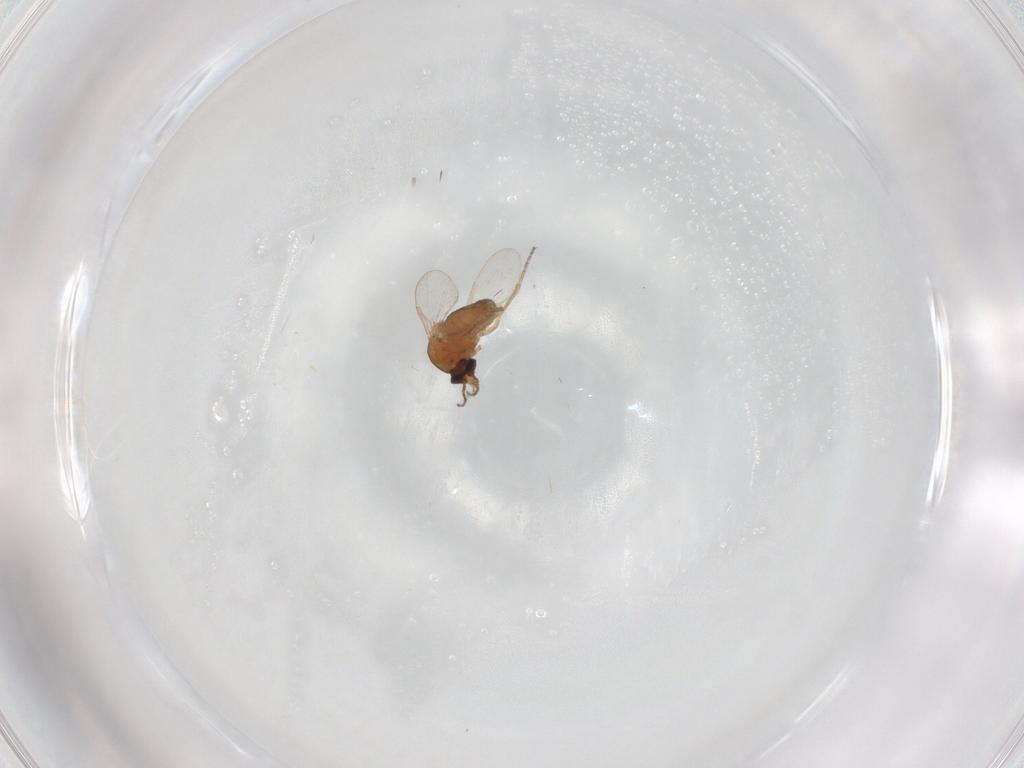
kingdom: Animalia
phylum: Arthropoda
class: Insecta
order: Diptera
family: Ceratopogonidae
